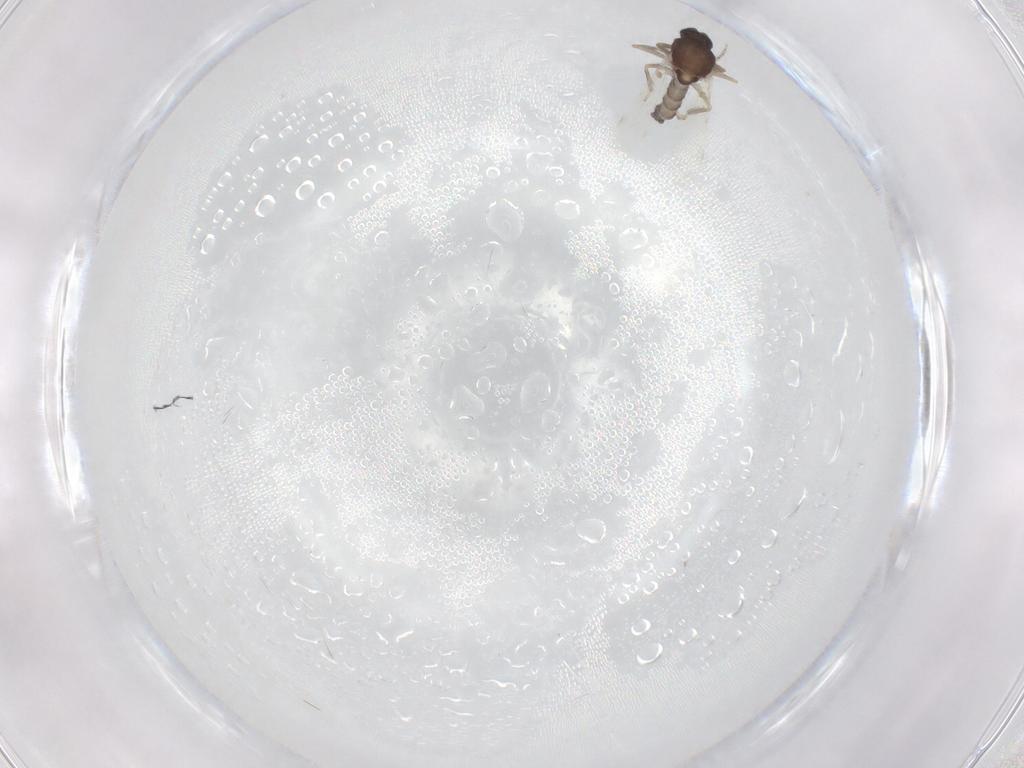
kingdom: Animalia
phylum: Arthropoda
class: Insecta
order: Diptera
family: Ceratopogonidae
